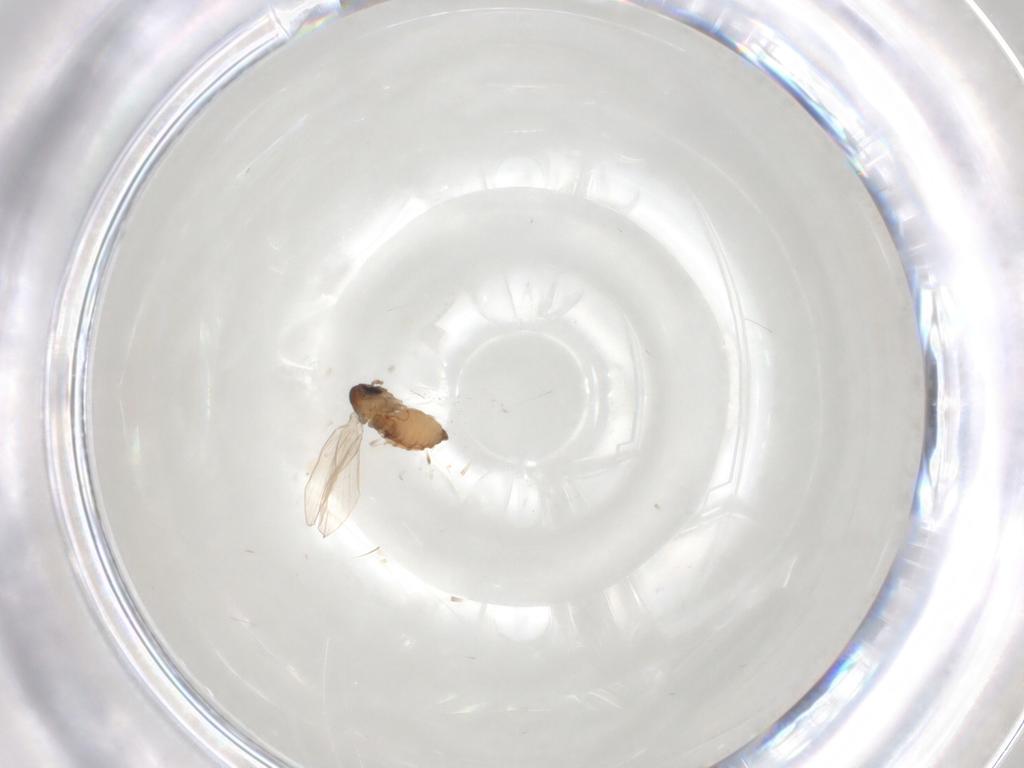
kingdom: Animalia
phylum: Arthropoda
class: Insecta
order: Diptera
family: Psychodidae
